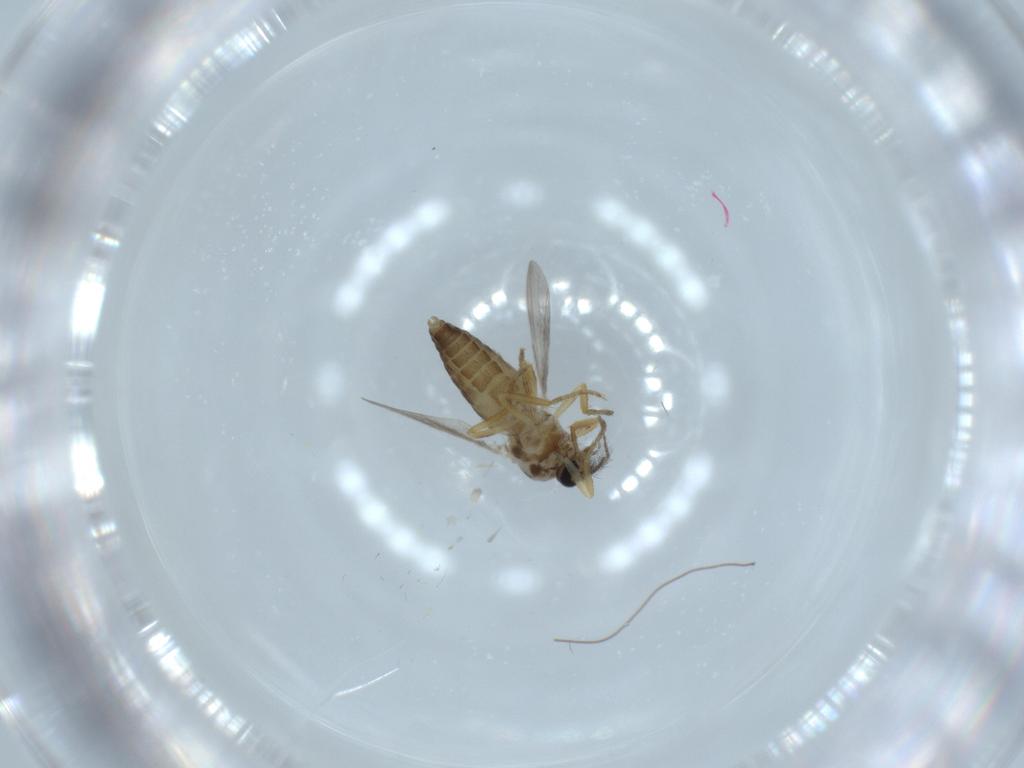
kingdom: Animalia
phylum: Arthropoda
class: Insecta
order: Diptera
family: Ceratopogonidae
